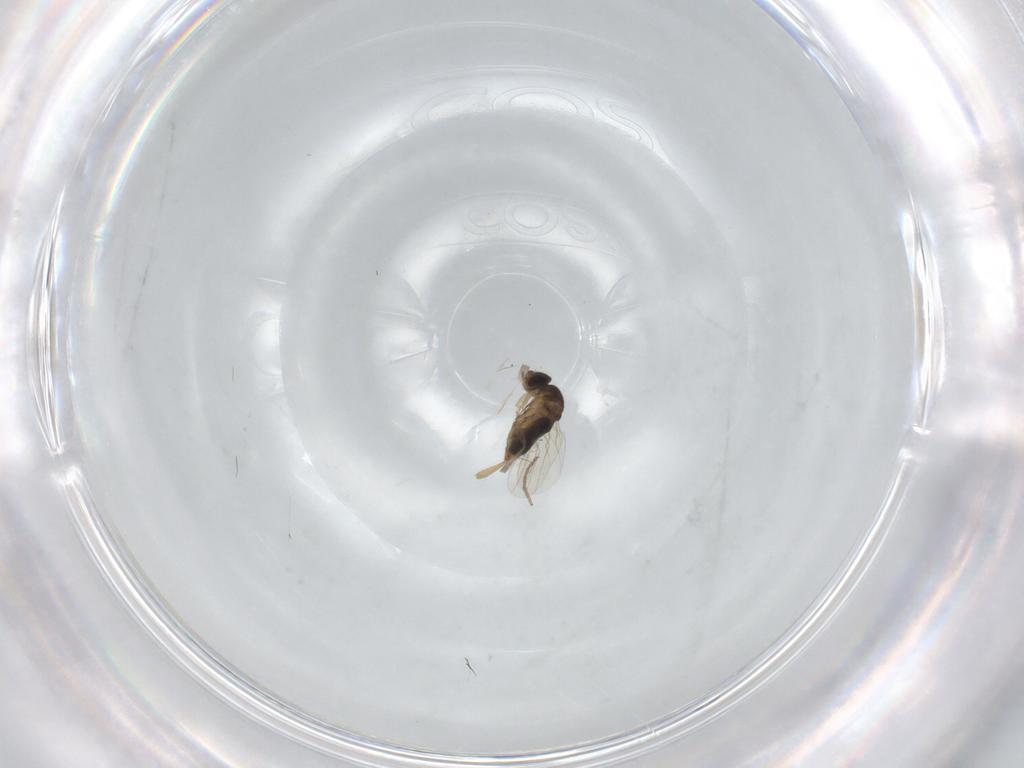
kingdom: Animalia
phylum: Arthropoda
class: Insecta
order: Diptera
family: Phoridae
